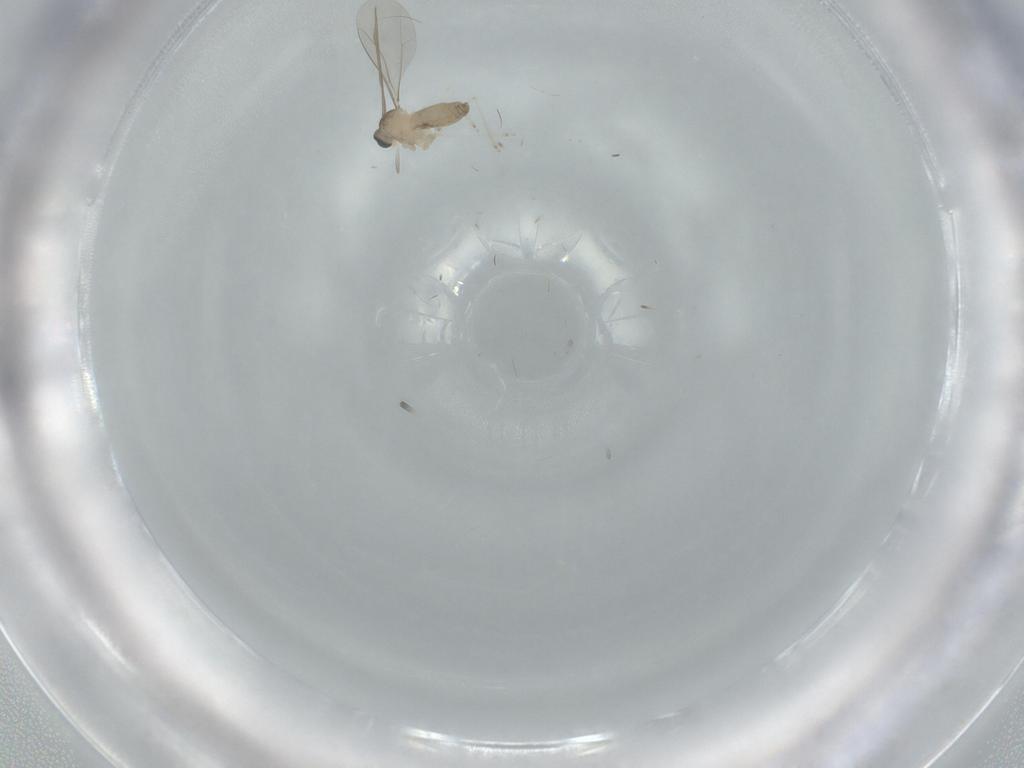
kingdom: Animalia
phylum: Arthropoda
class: Insecta
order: Diptera
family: Cecidomyiidae
